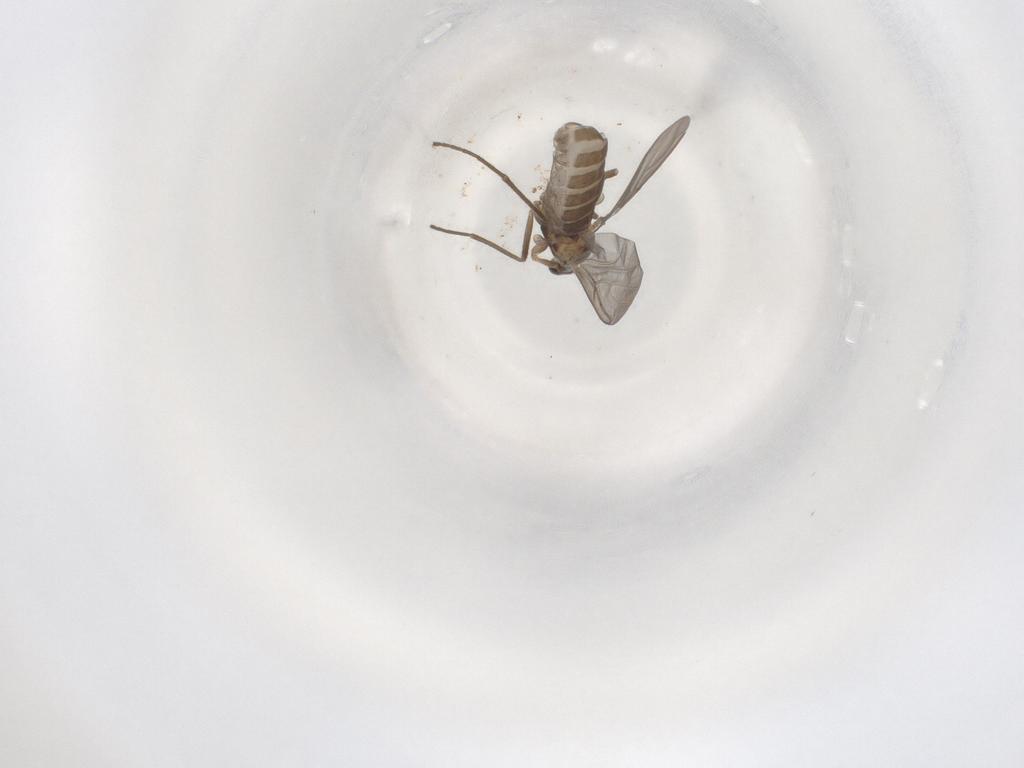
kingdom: Animalia
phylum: Arthropoda
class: Insecta
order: Diptera
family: Cecidomyiidae
